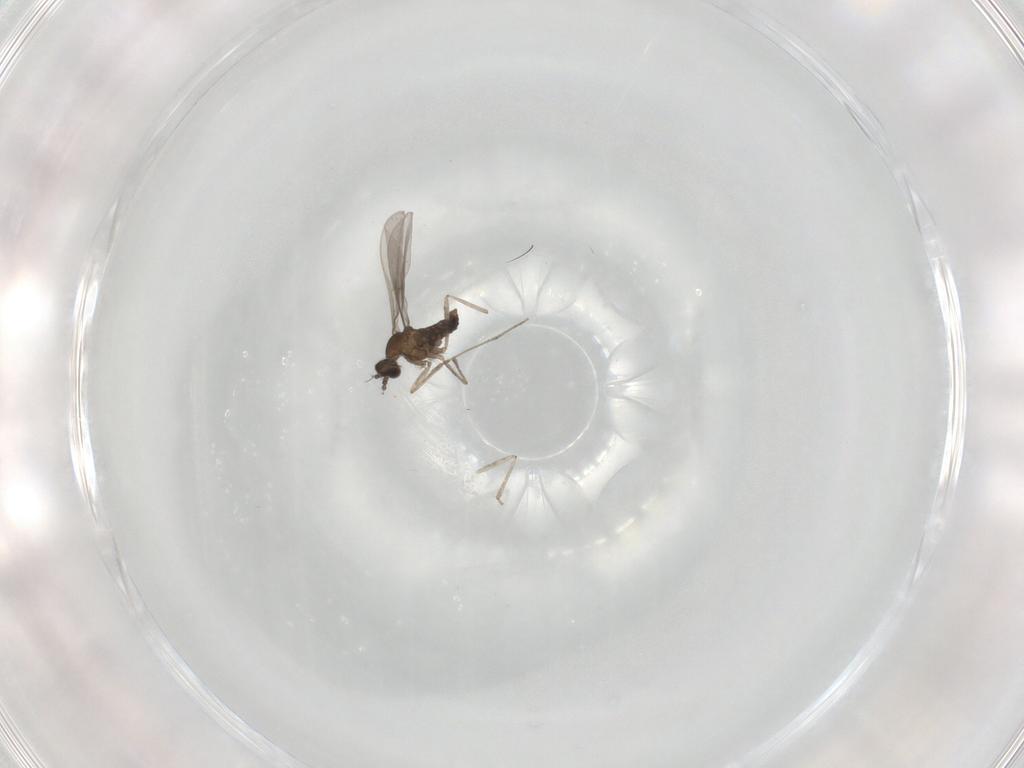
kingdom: Animalia
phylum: Arthropoda
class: Insecta
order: Diptera
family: Cecidomyiidae
